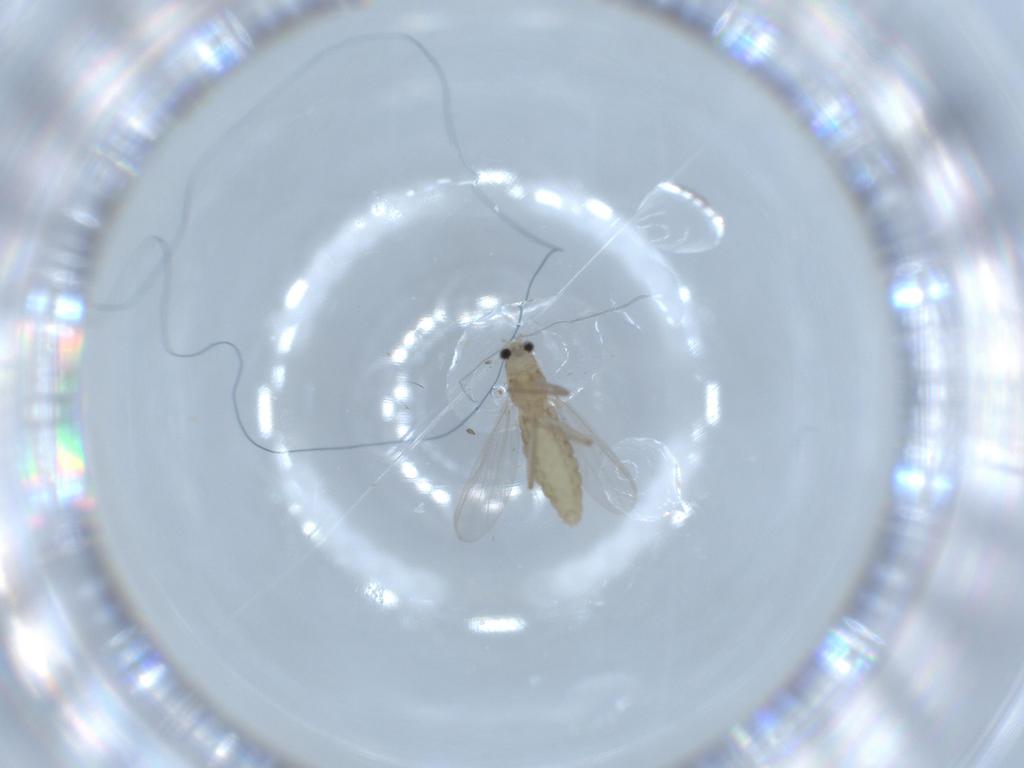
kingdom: Animalia
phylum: Arthropoda
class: Insecta
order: Diptera
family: Chironomidae
